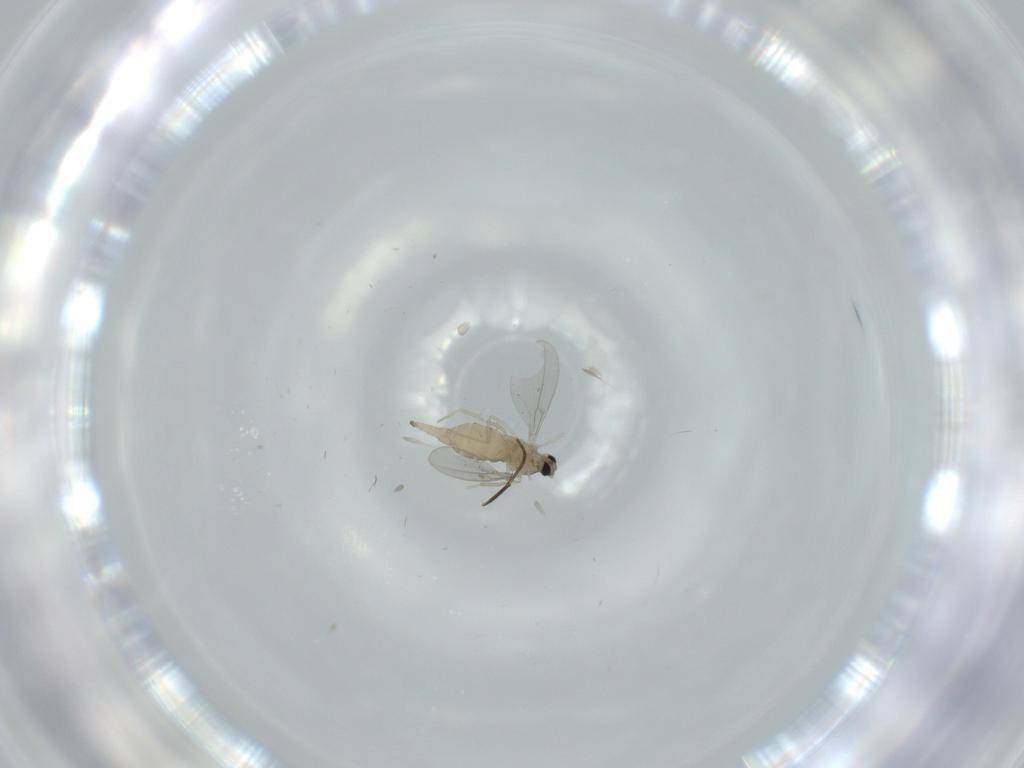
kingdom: Animalia
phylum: Arthropoda
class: Insecta
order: Diptera
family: Cecidomyiidae
